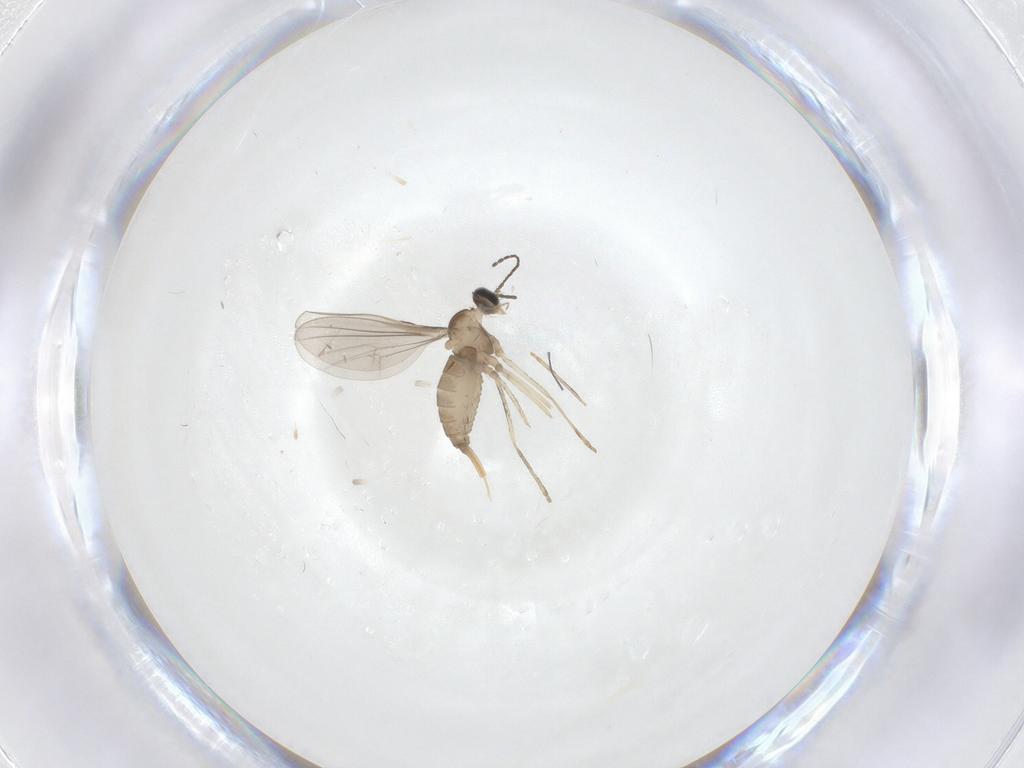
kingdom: Animalia
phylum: Arthropoda
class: Insecta
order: Diptera
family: Cecidomyiidae
